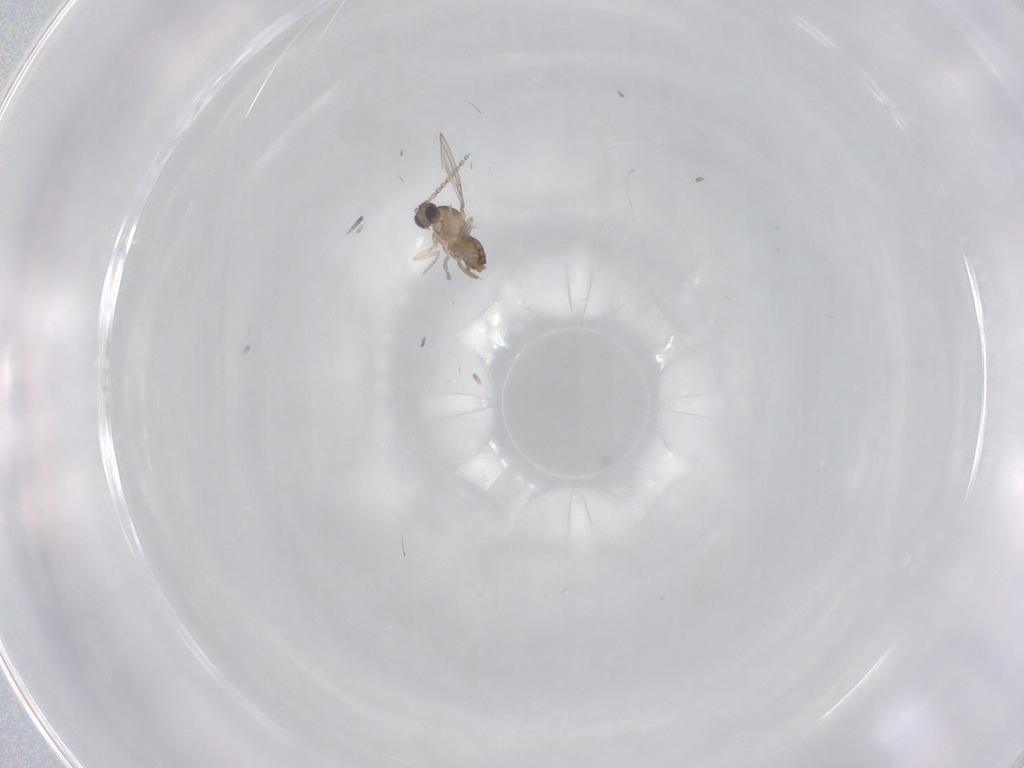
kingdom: Animalia
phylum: Arthropoda
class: Insecta
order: Diptera
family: Cecidomyiidae
